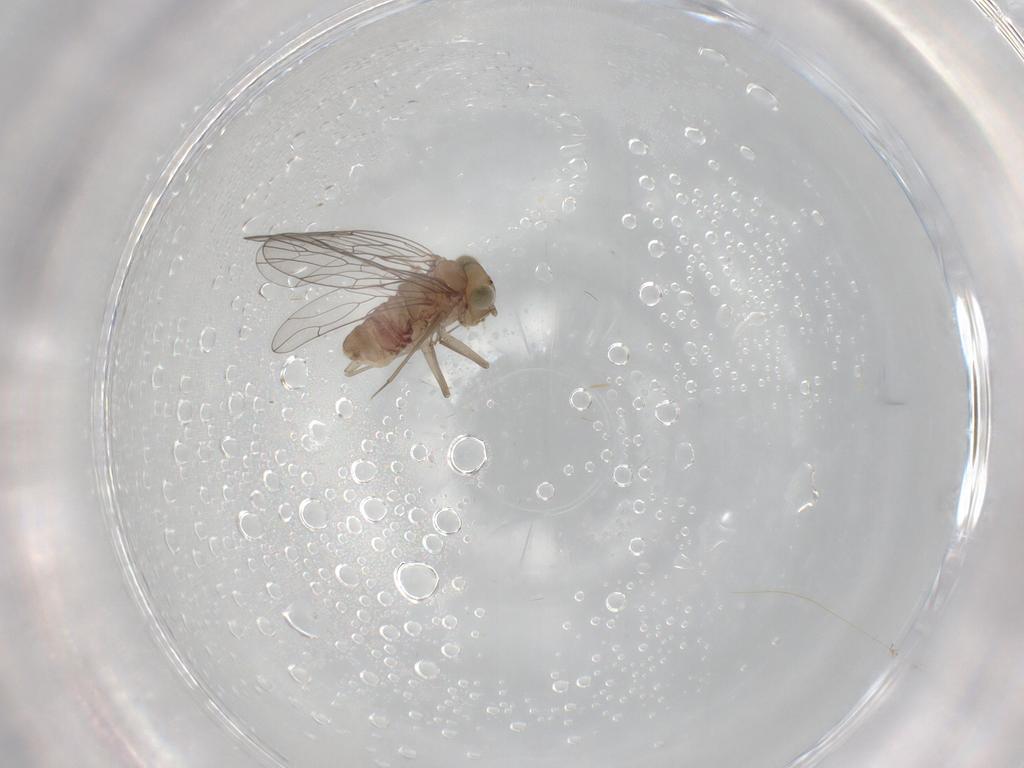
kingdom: Animalia
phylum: Arthropoda
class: Insecta
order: Psocodea
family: Amphientomidae
